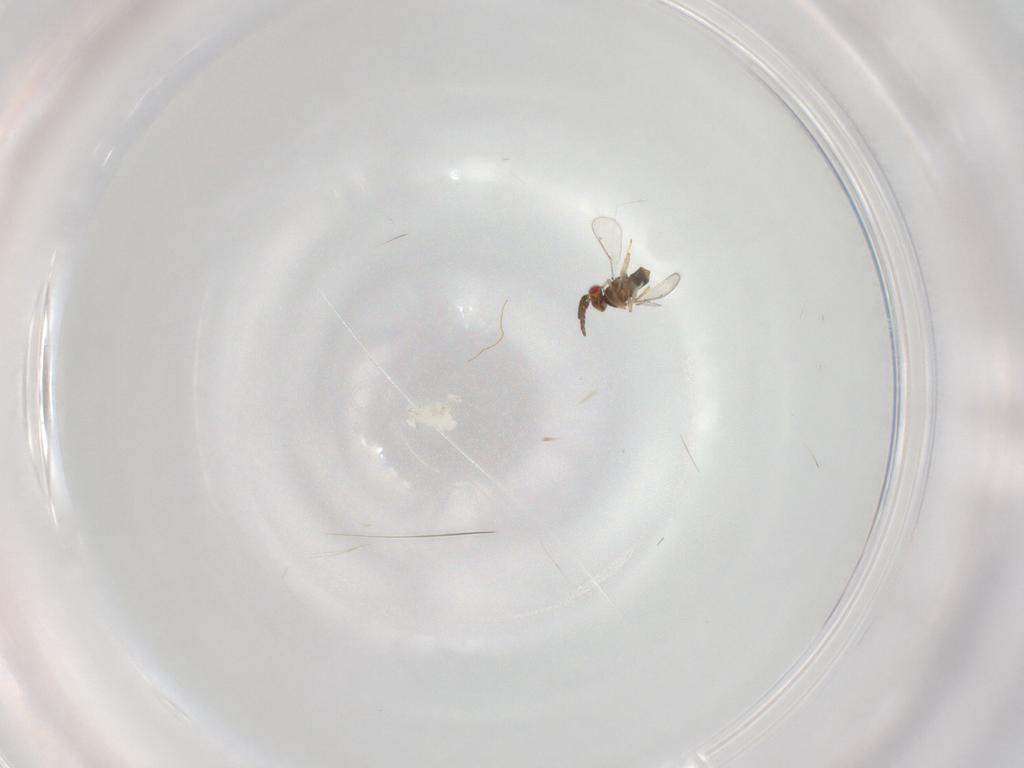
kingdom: Animalia
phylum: Arthropoda
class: Insecta
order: Hymenoptera
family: Aphelinidae
